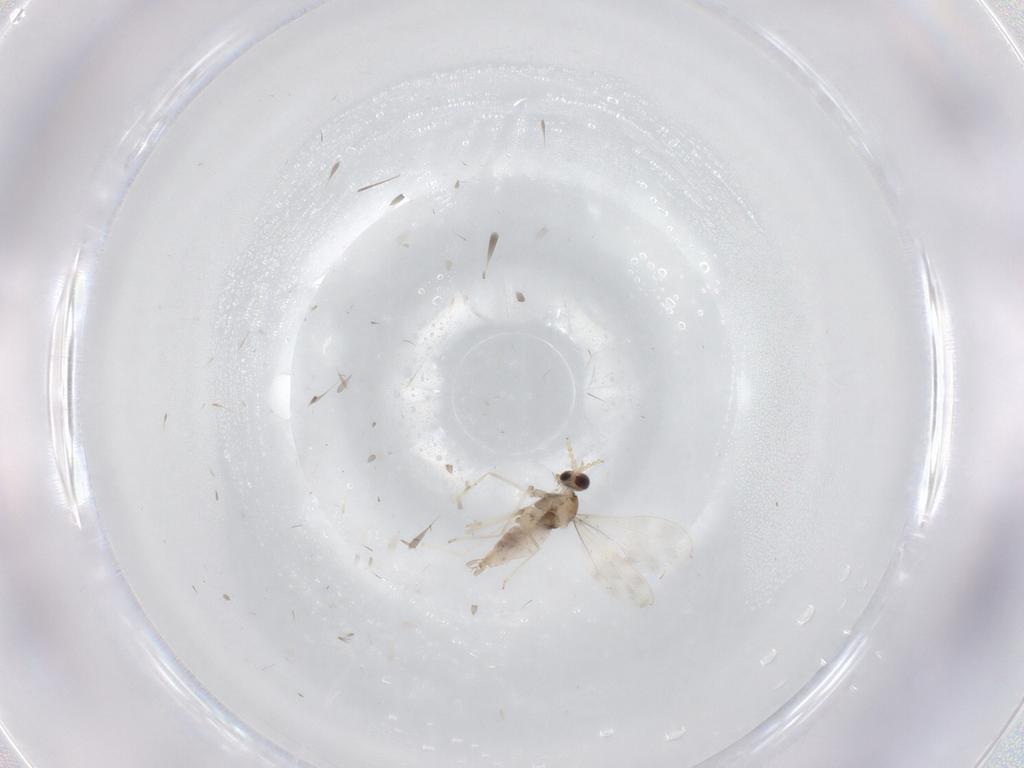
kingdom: Animalia
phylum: Arthropoda
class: Insecta
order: Diptera
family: Cecidomyiidae
